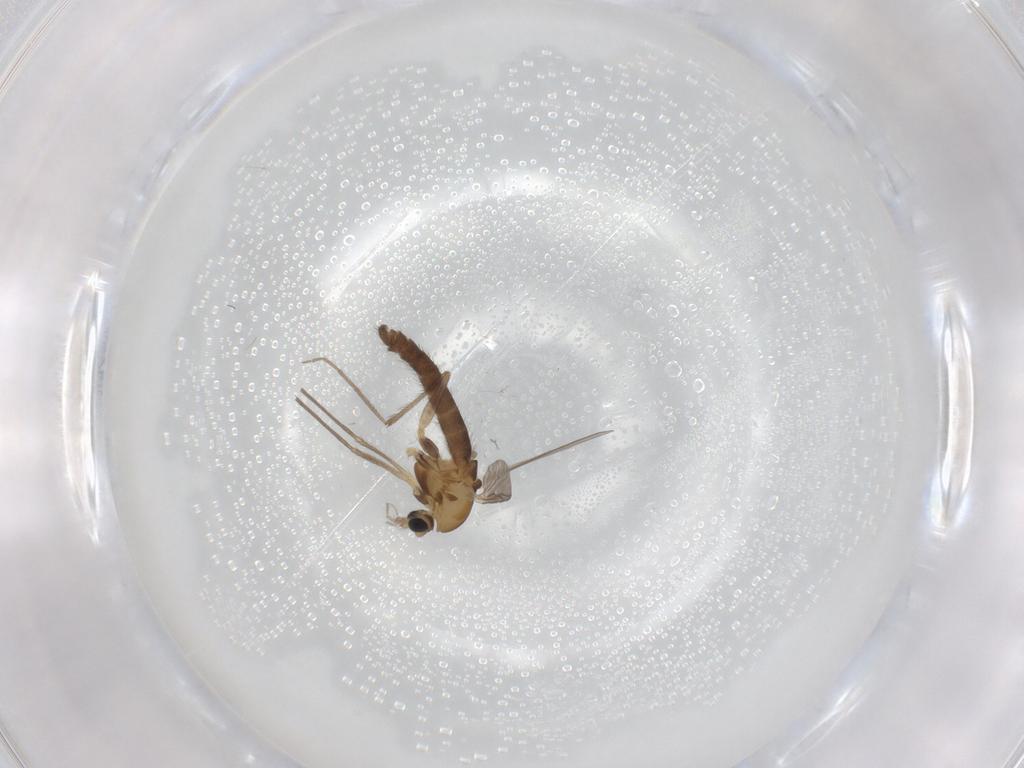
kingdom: Animalia
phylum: Arthropoda
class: Insecta
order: Diptera
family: Chironomidae
